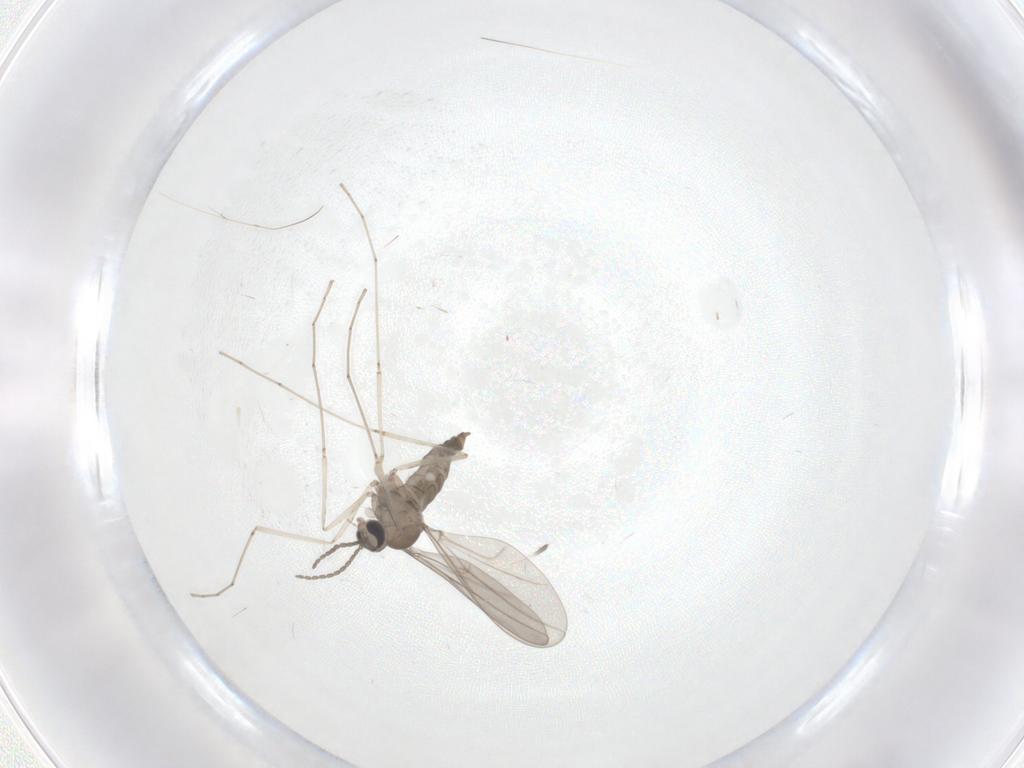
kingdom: Animalia
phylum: Arthropoda
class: Insecta
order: Diptera
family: Cecidomyiidae
